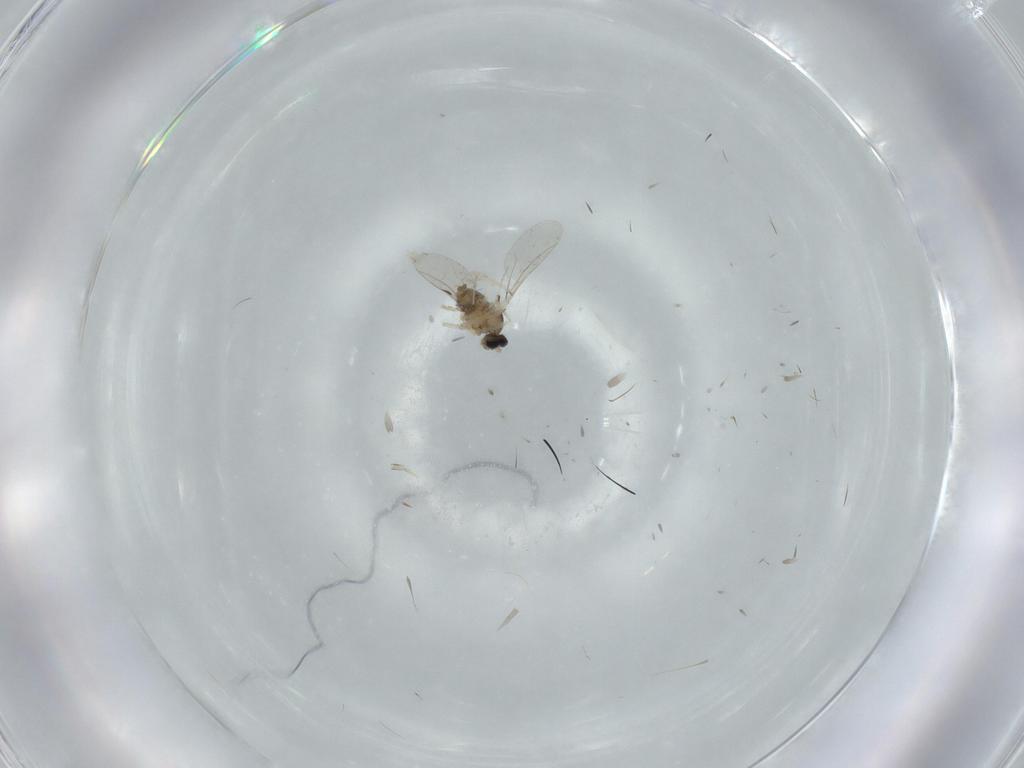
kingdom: Animalia
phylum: Arthropoda
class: Insecta
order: Diptera
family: Cecidomyiidae
